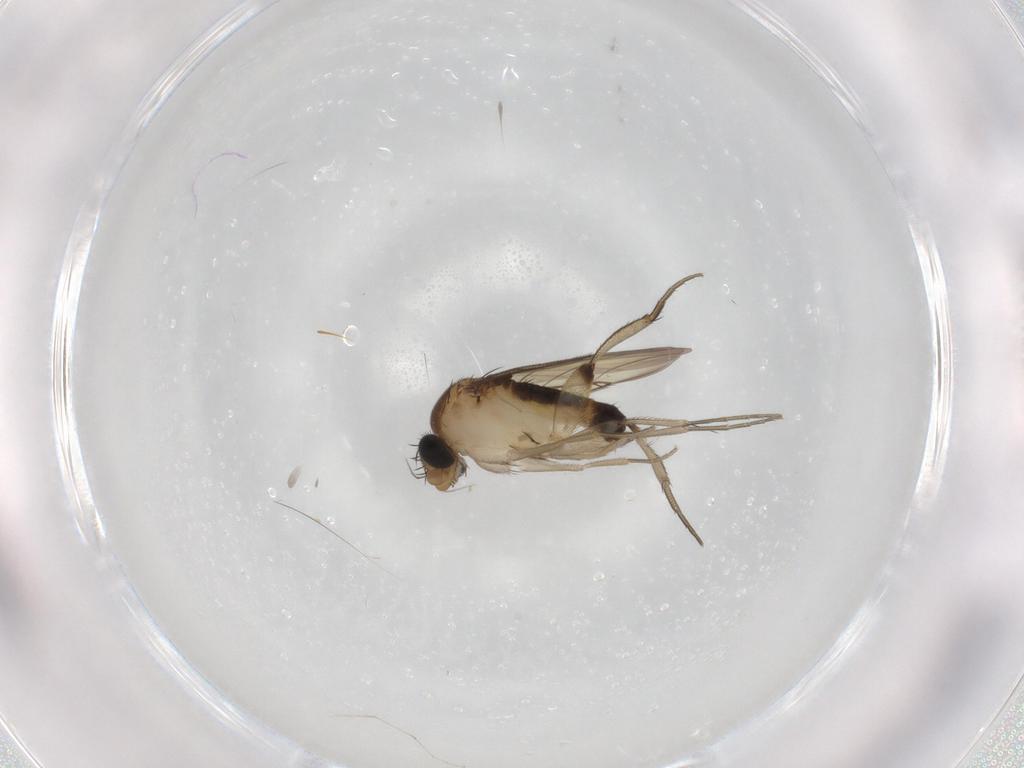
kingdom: Animalia
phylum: Arthropoda
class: Insecta
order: Diptera
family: Phoridae
